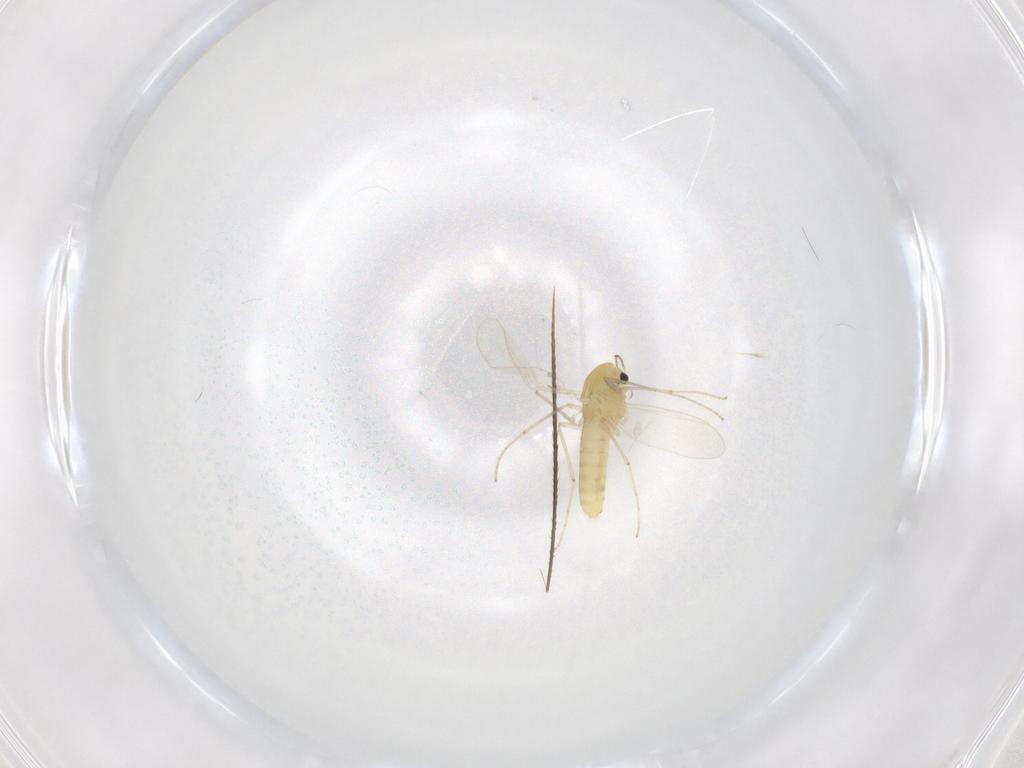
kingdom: Animalia
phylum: Arthropoda
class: Insecta
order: Diptera
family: Chironomidae
